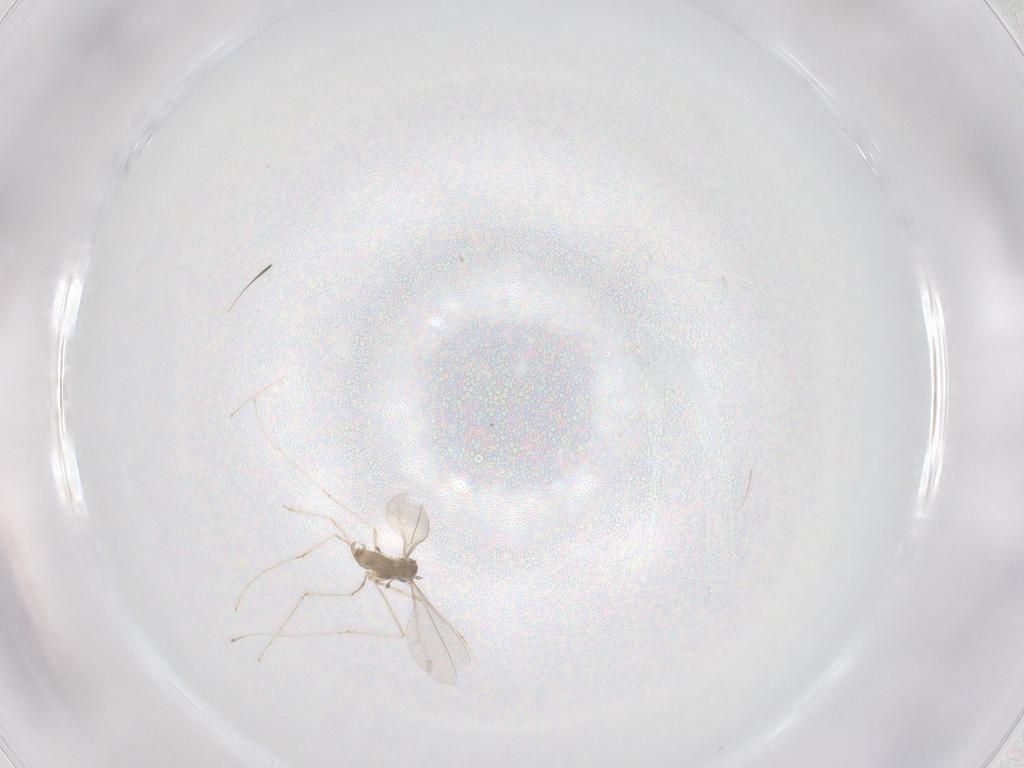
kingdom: Animalia
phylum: Arthropoda
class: Insecta
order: Diptera
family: Cecidomyiidae
